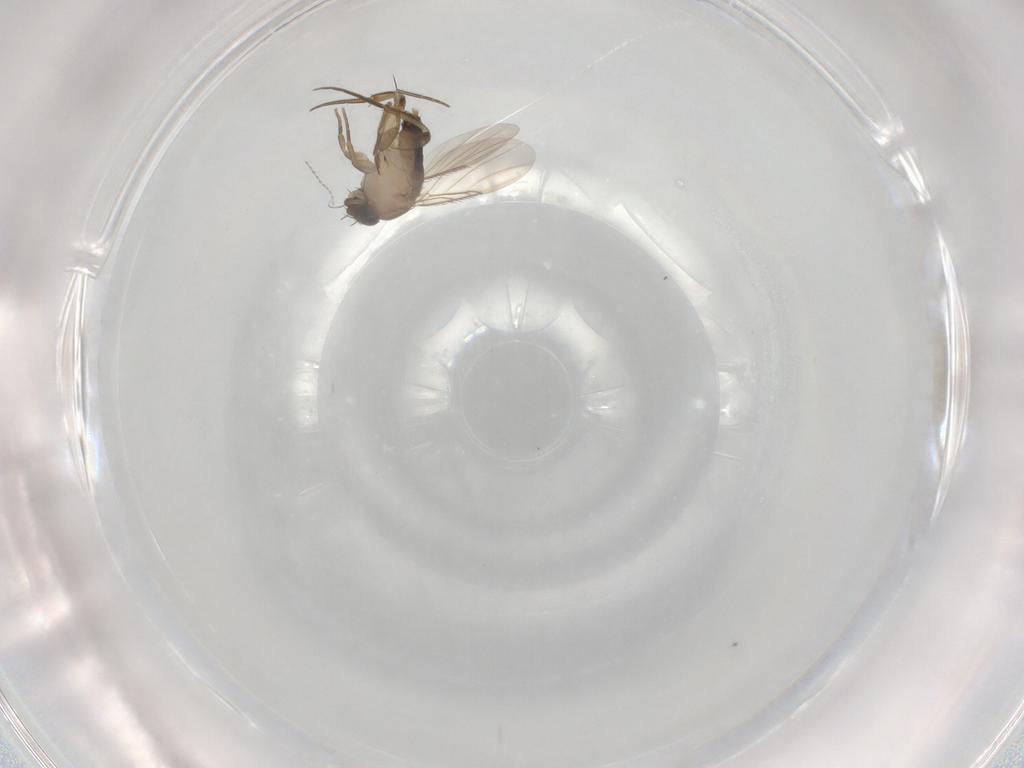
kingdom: Animalia
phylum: Arthropoda
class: Insecta
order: Diptera
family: Phoridae
